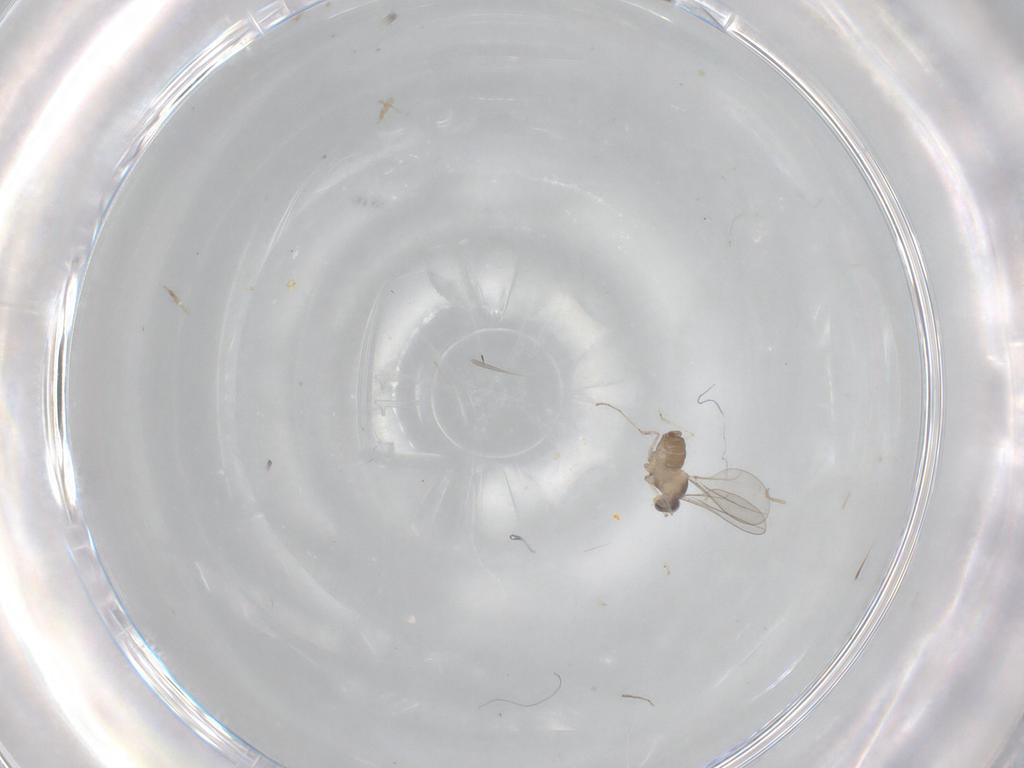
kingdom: Animalia
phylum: Arthropoda
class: Insecta
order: Diptera
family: Cecidomyiidae
